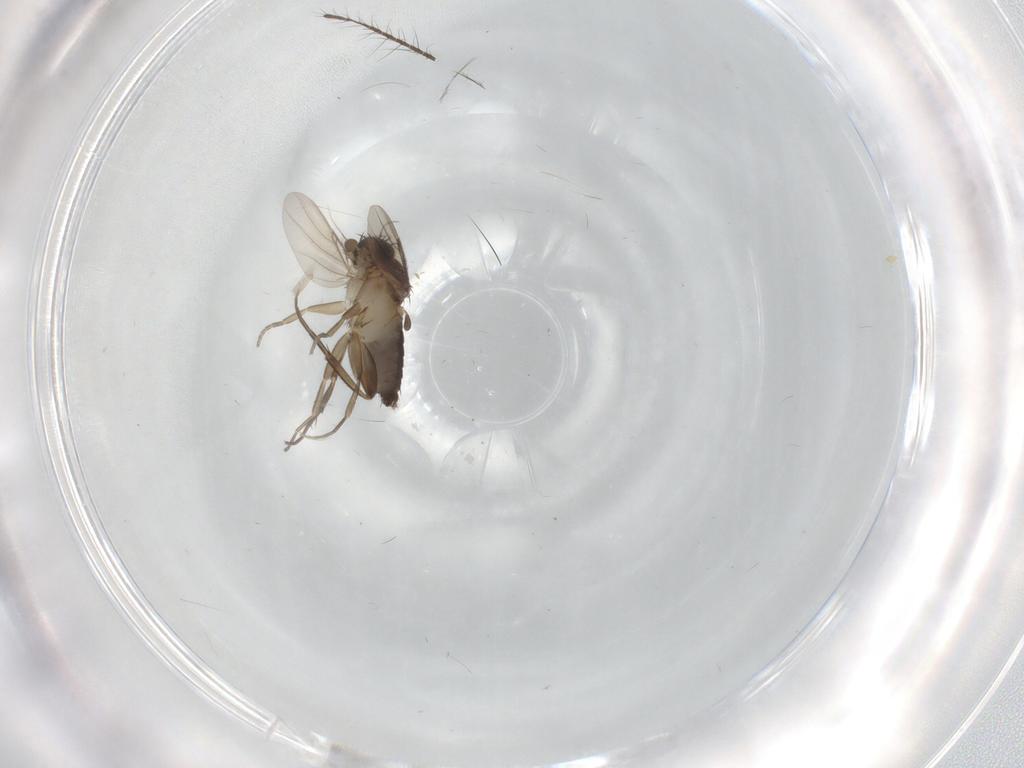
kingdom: Animalia
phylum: Arthropoda
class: Insecta
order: Diptera
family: Phoridae
